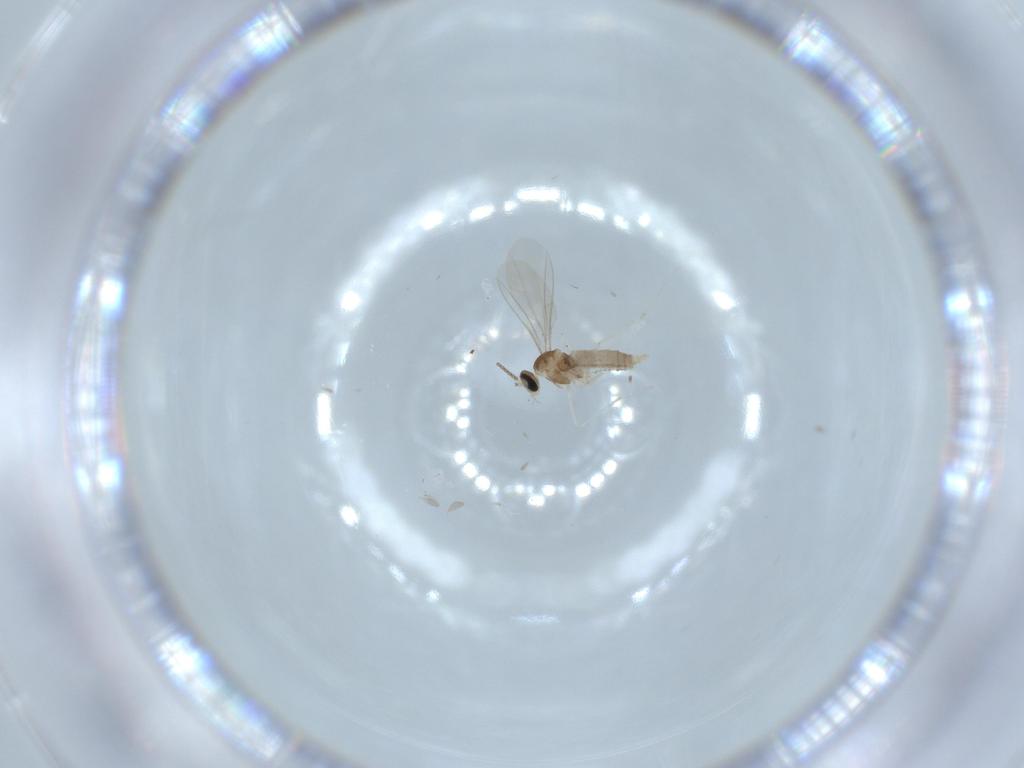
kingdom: Animalia
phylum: Arthropoda
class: Insecta
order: Diptera
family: Cecidomyiidae
